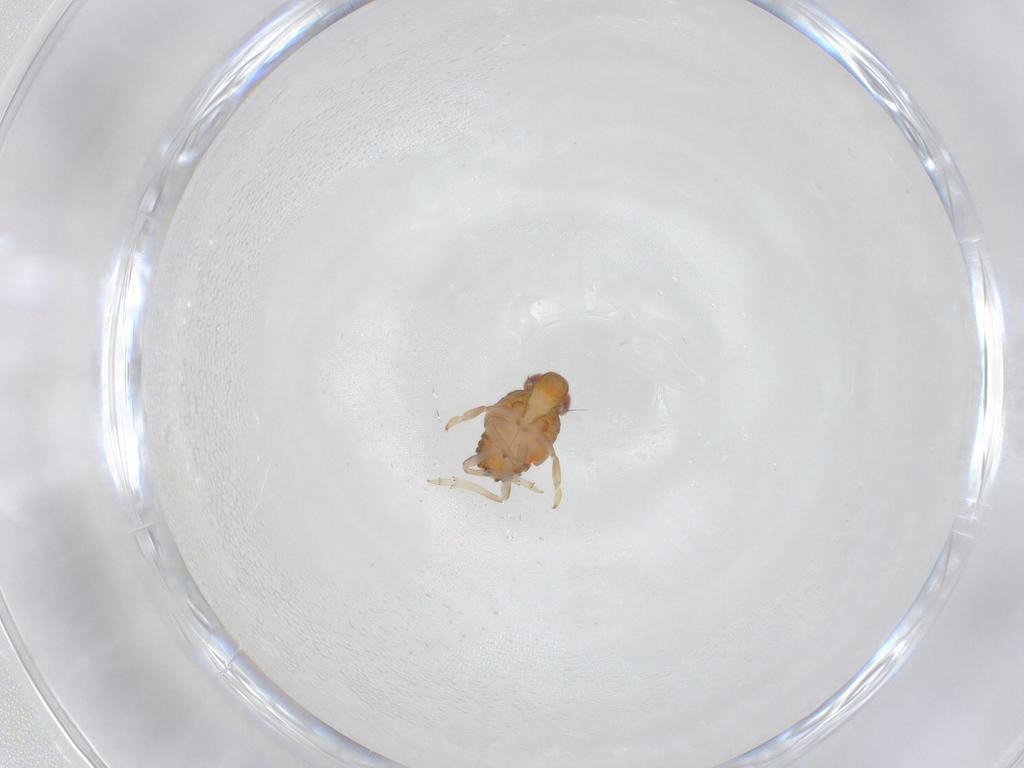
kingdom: Animalia
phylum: Arthropoda
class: Insecta
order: Hemiptera
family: Issidae
